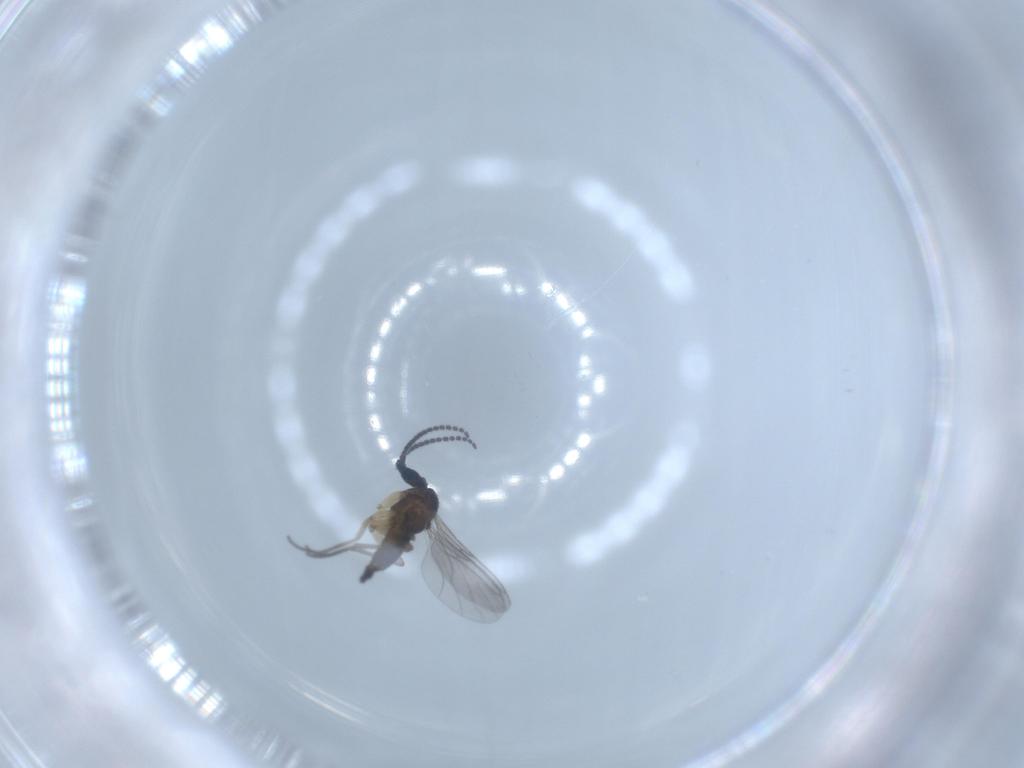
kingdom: Animalia
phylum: Arthropoda
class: Insecta
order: Diptera
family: Sciaridae
